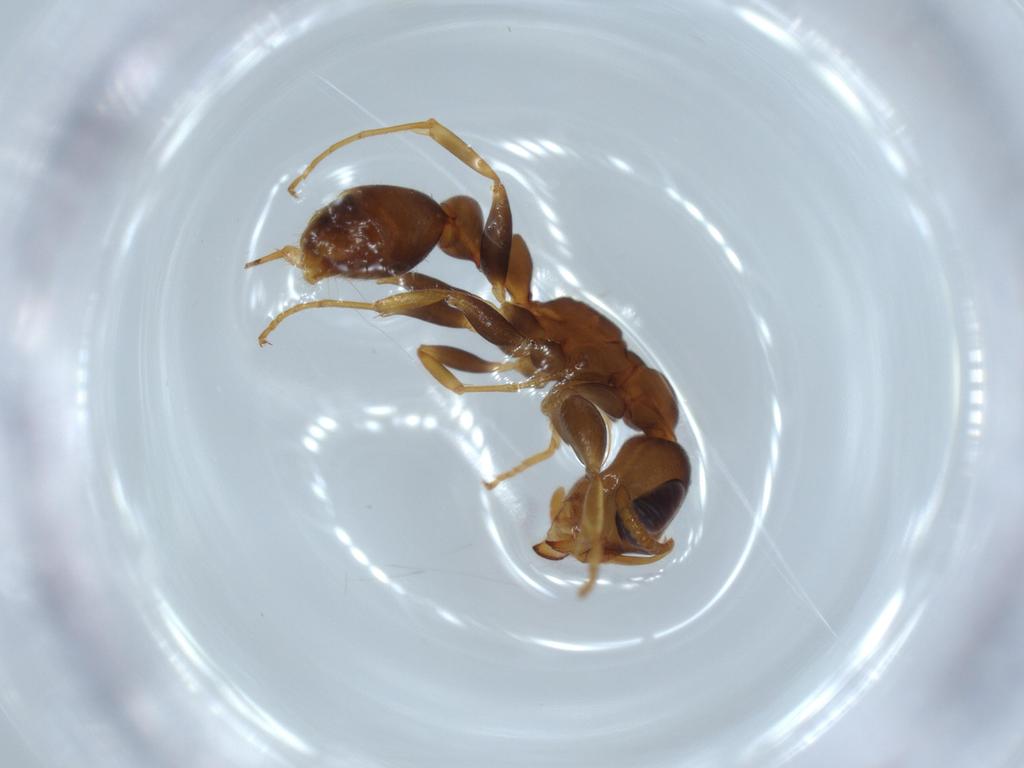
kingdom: Animalia
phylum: Arthropoda
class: Insecta
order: Hymenoptera
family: Formicidae
